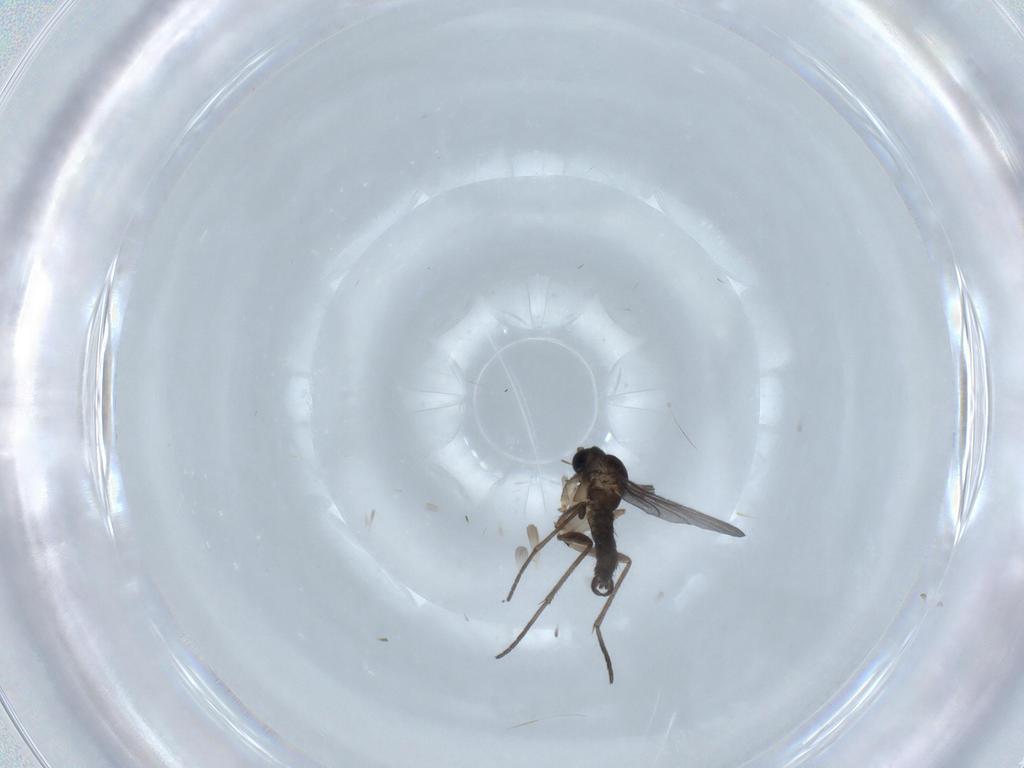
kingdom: Animalia
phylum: Arthropoda
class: Insecta
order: Diptera
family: Sciaridae
